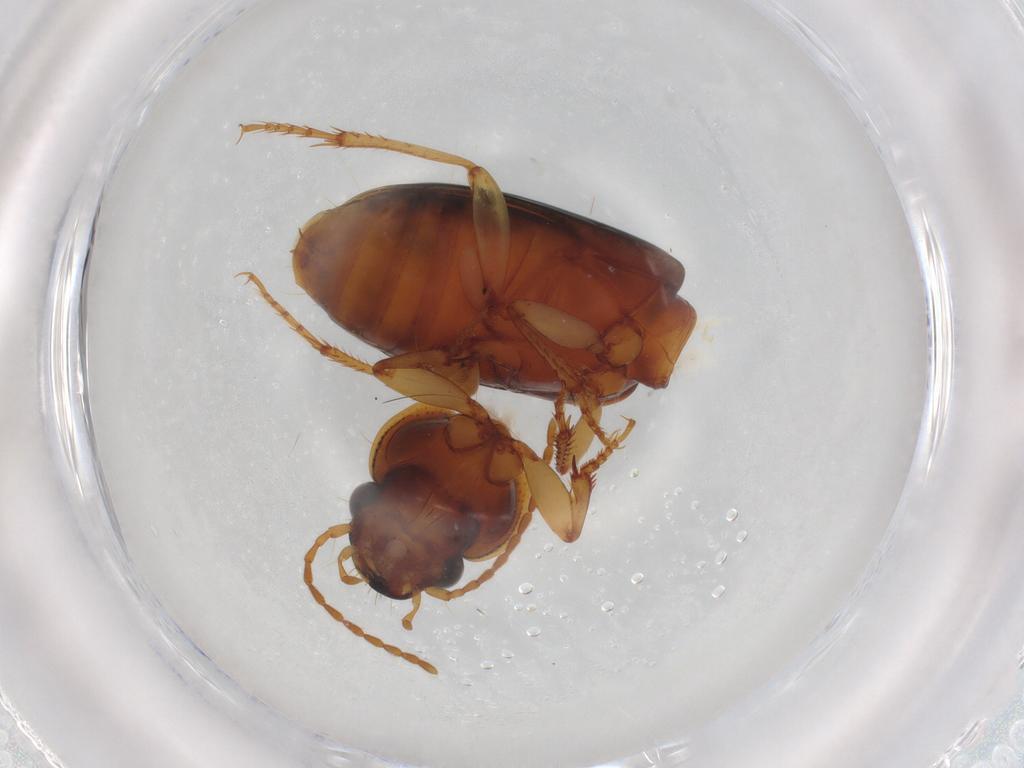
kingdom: Animalia
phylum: Arthropoda
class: Insecta
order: Coleoptera
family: Carabidae
